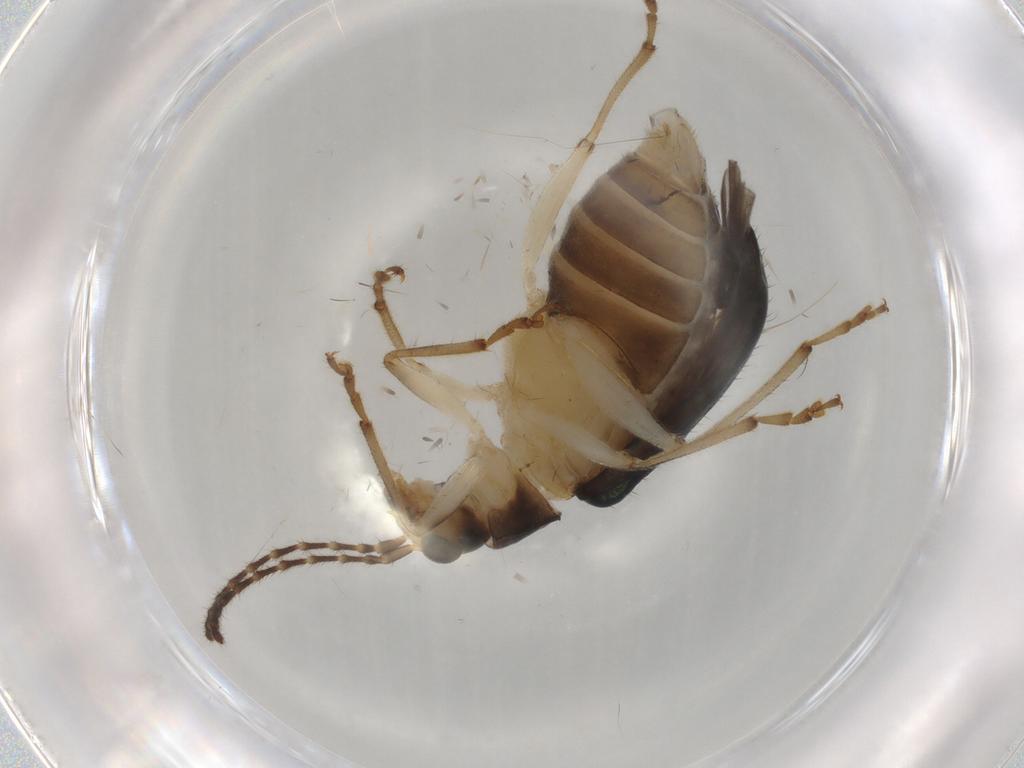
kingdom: Animalia
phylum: Arthropoda
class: Insecta
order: Coleoptera
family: Chrysomelidae
